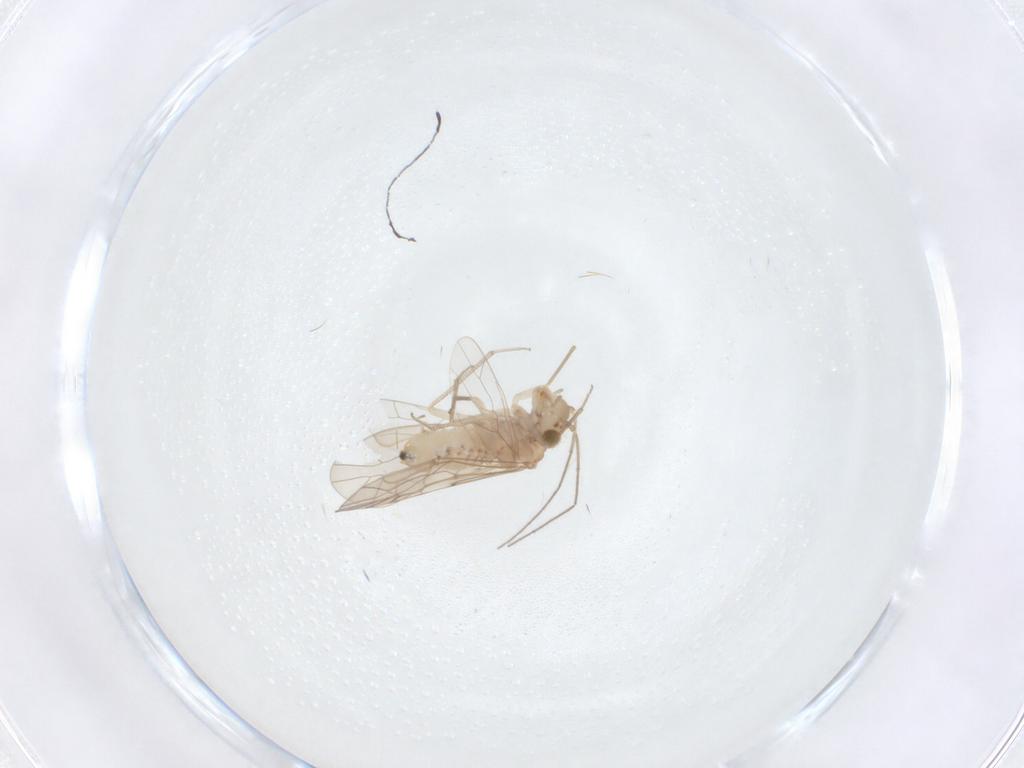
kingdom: Animalia
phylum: Arthropoda
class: Insecta
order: Psocodea
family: Lachesillidae
